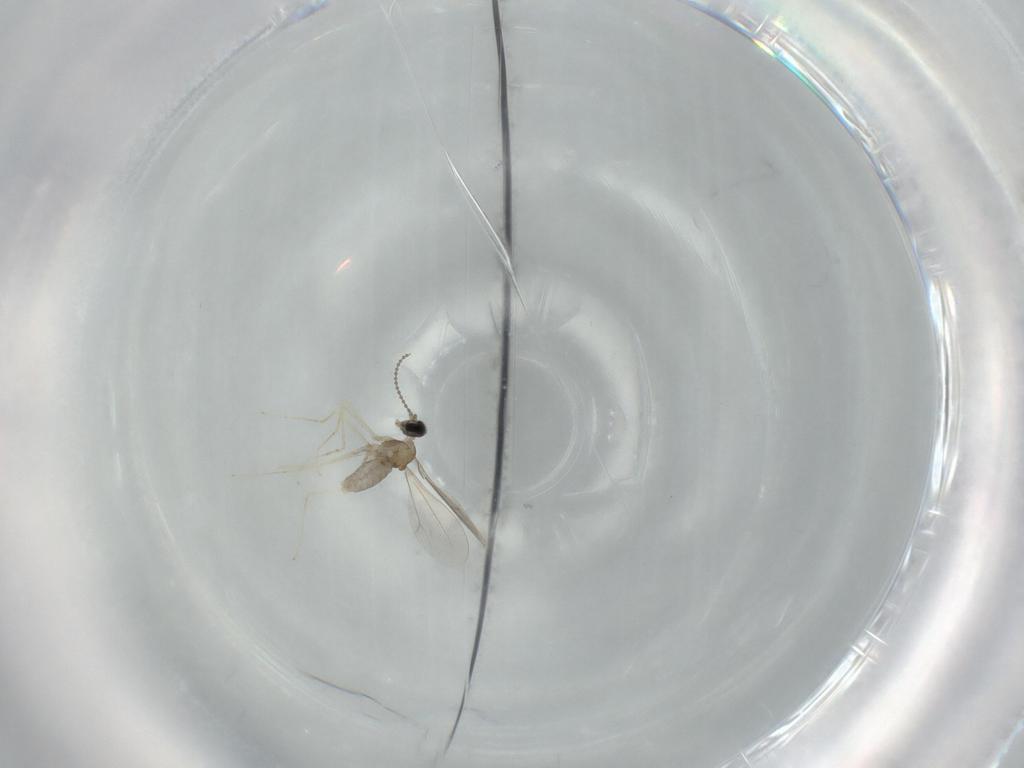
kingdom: Animalia
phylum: Arthropoda
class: Insecta
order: Diptera
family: Cecidomyiidae
